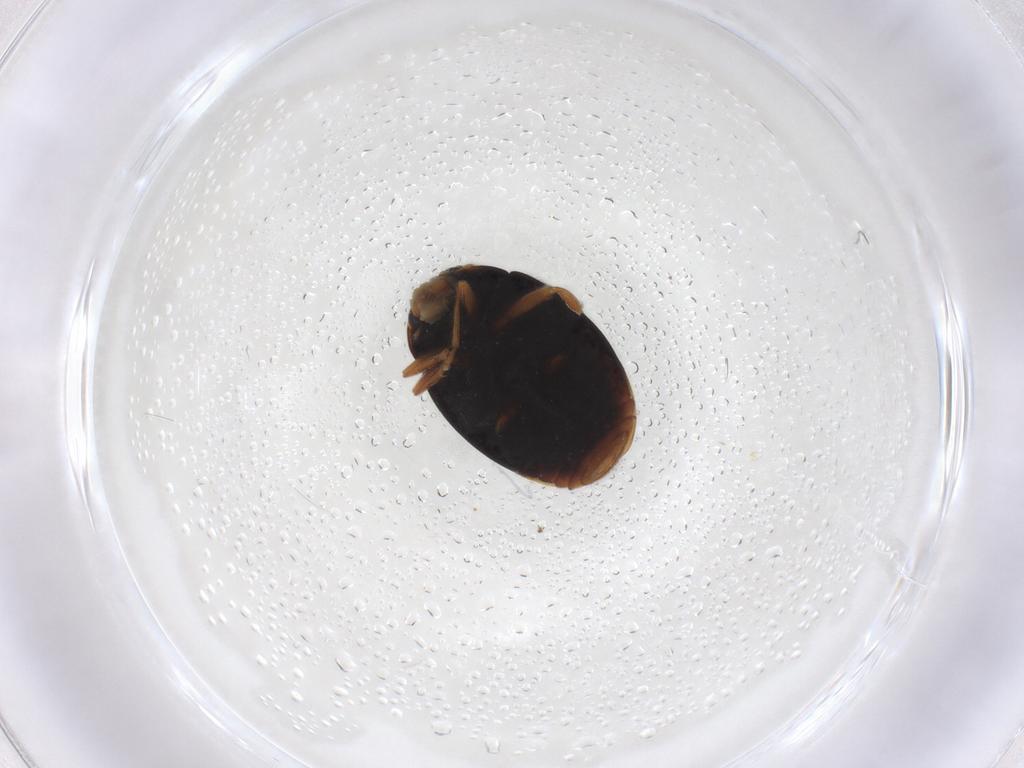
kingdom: Animalia
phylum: Arthropoda
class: Insecta
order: Coleoptera
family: Coccinellidae
